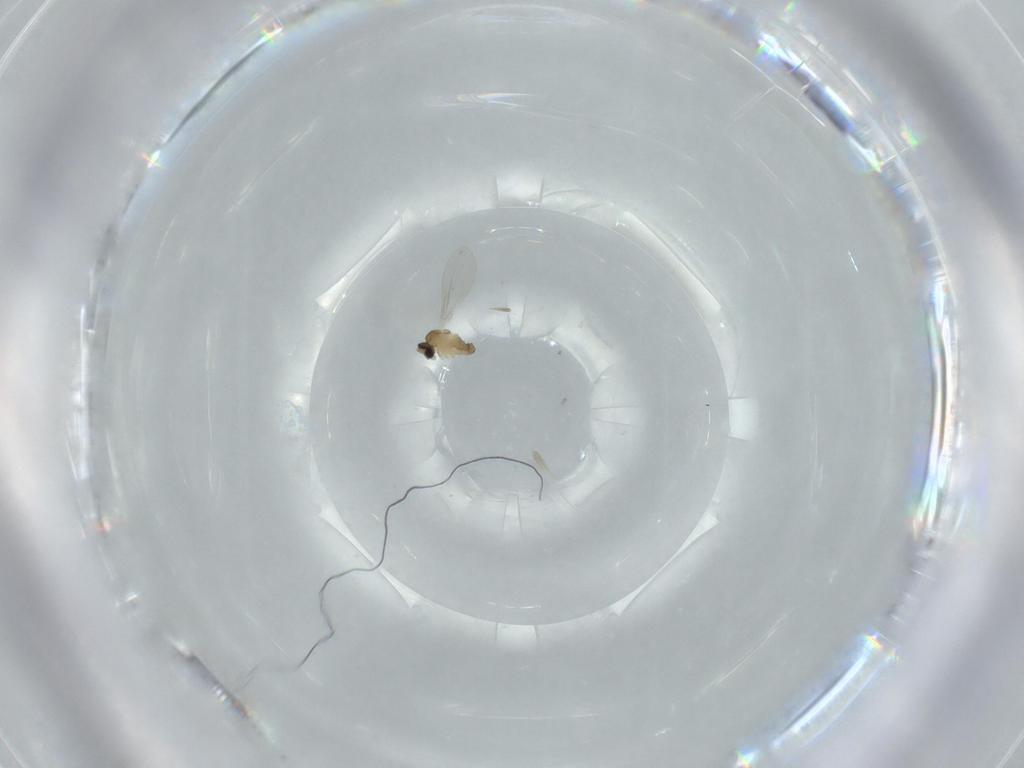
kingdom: Animalia
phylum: Arthropoda
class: Insecta
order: Diptera
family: Cecidomyiidae
